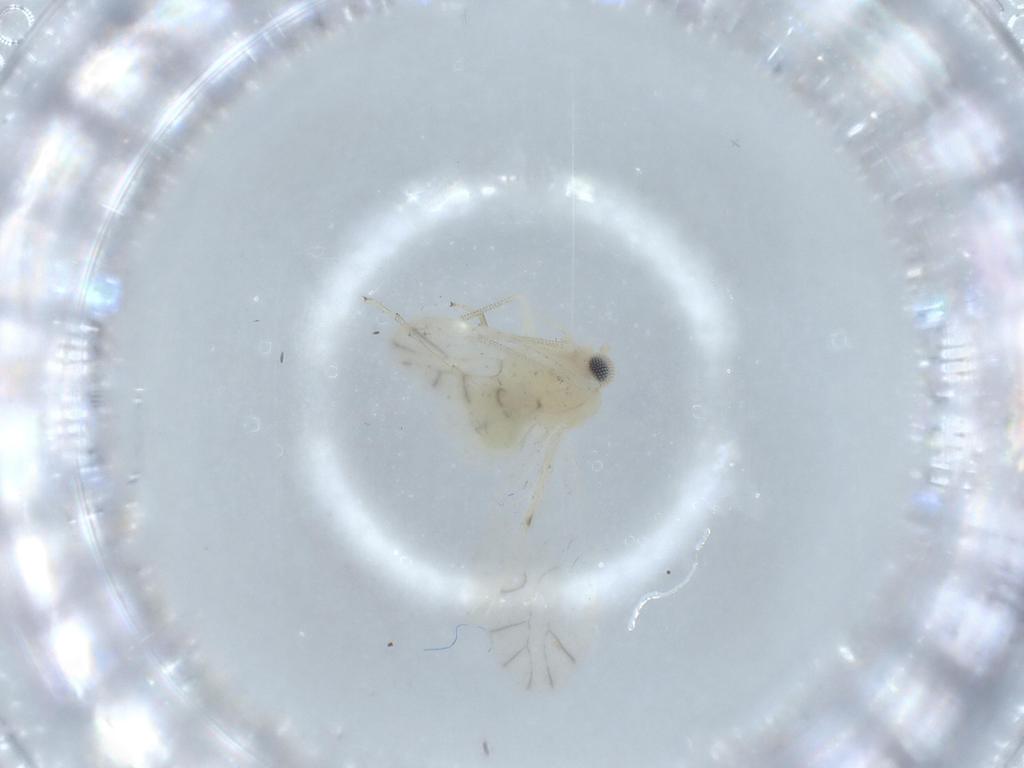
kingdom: Animalia
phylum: Arthropoda
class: Insecta
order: Psocodea
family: Caeciliusidae
